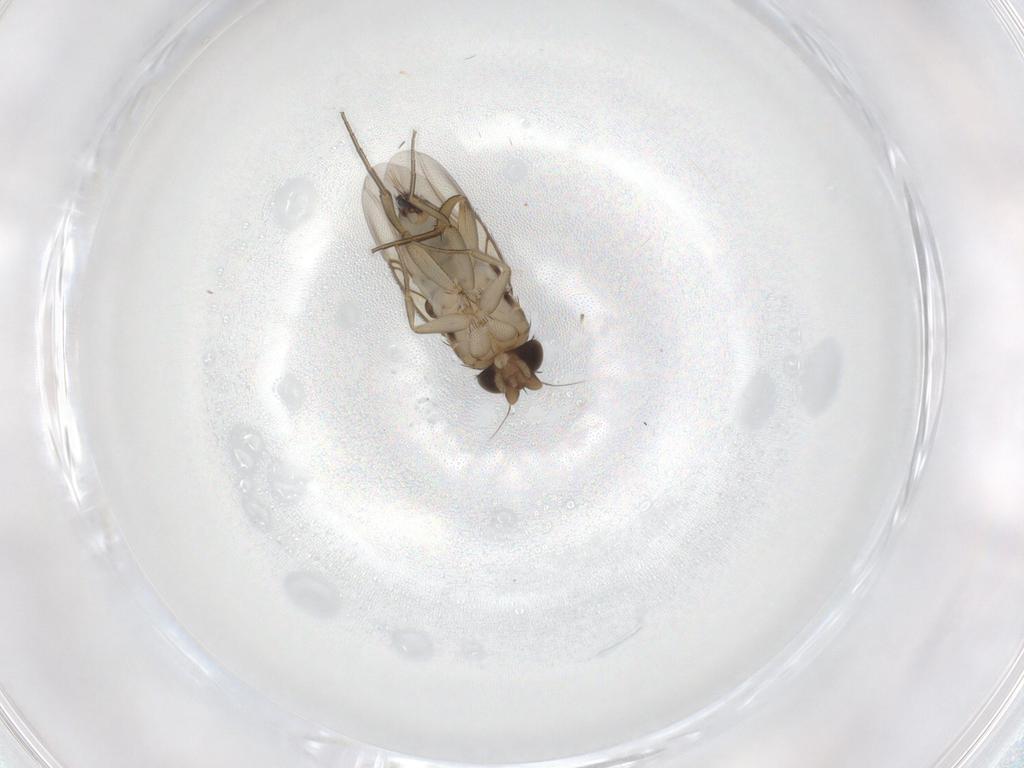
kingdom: Animalia
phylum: Arthropoda
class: Insecta
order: Diptera
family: Phoridae
